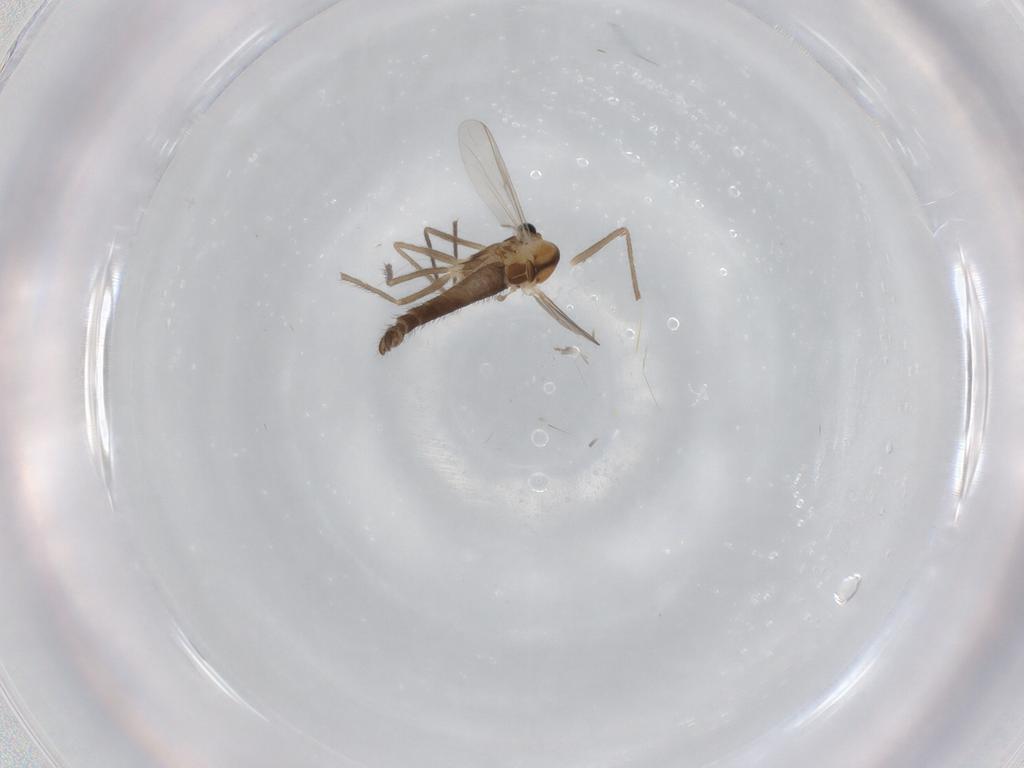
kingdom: Animalia
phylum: Arthropoda
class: Insecta
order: Diptera
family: Chironomidae
